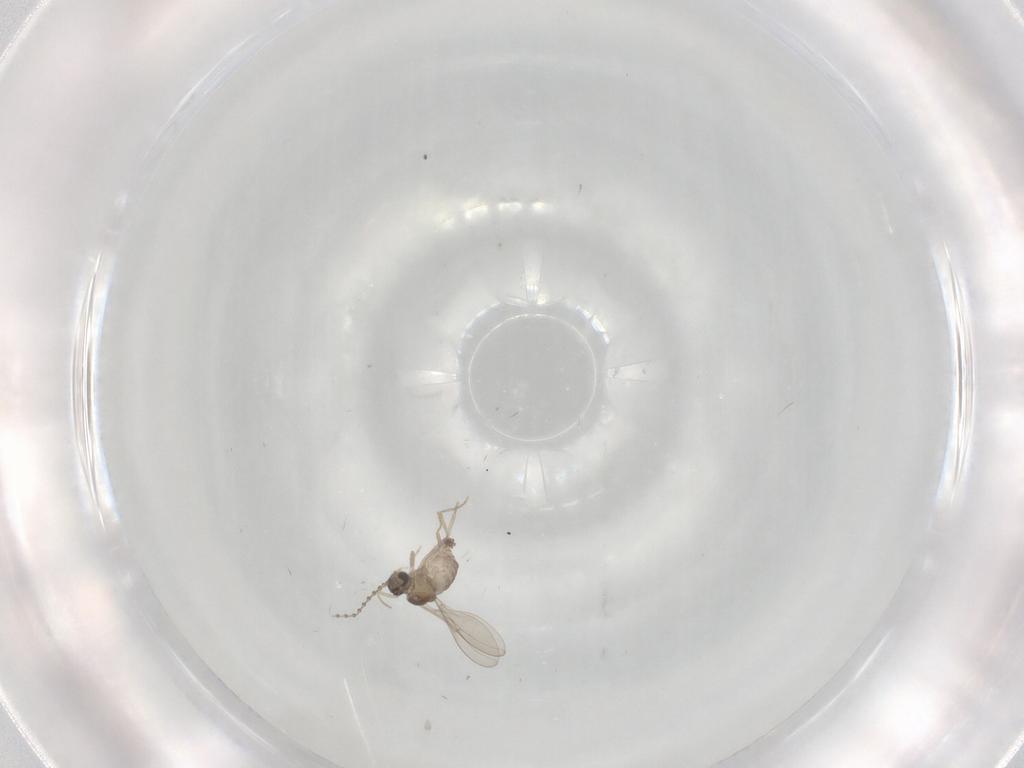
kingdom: Animalia
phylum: Arthropoda
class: Insecta
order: Diptera
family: Cecidomyiidae
